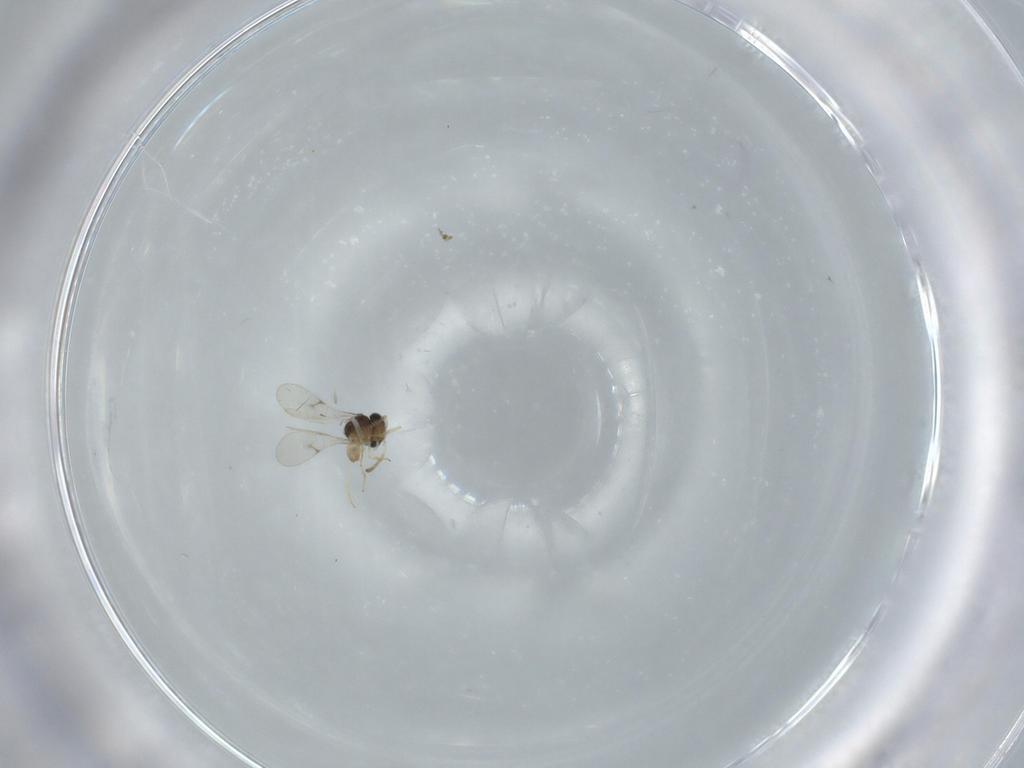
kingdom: Animalia
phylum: Arthropoda
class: Insecta
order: Hymenoptera
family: Scelionidae
